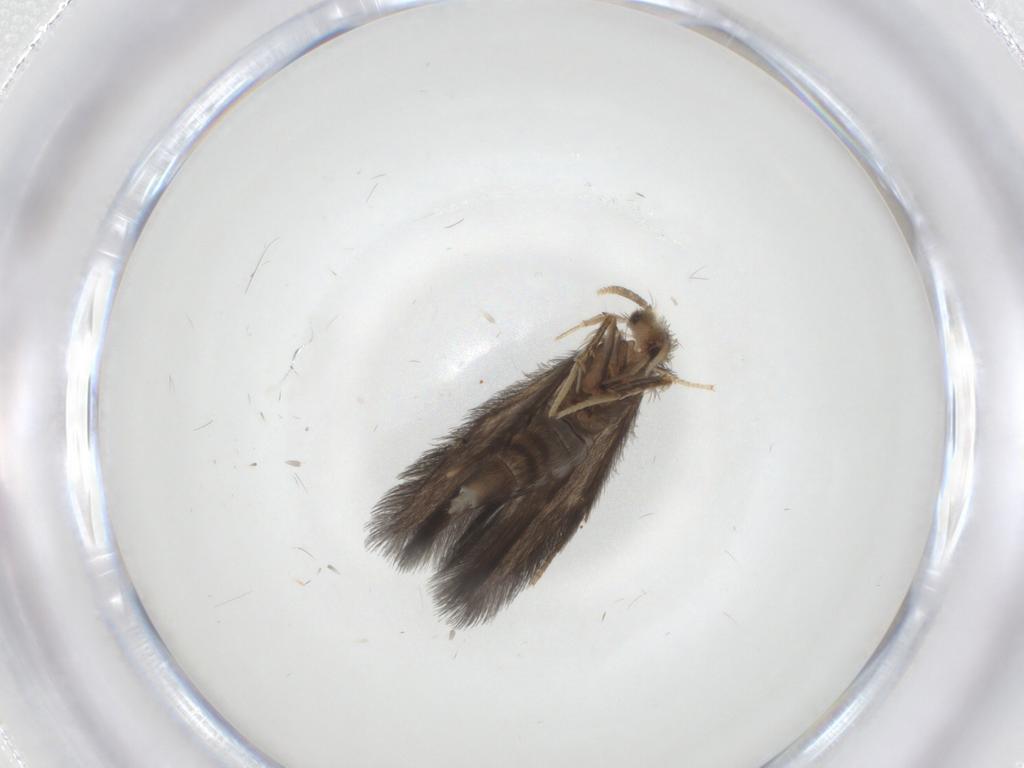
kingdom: Animalia
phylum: Arthropoda
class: Insecta
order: Trichoptera
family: Hydroptilidae
